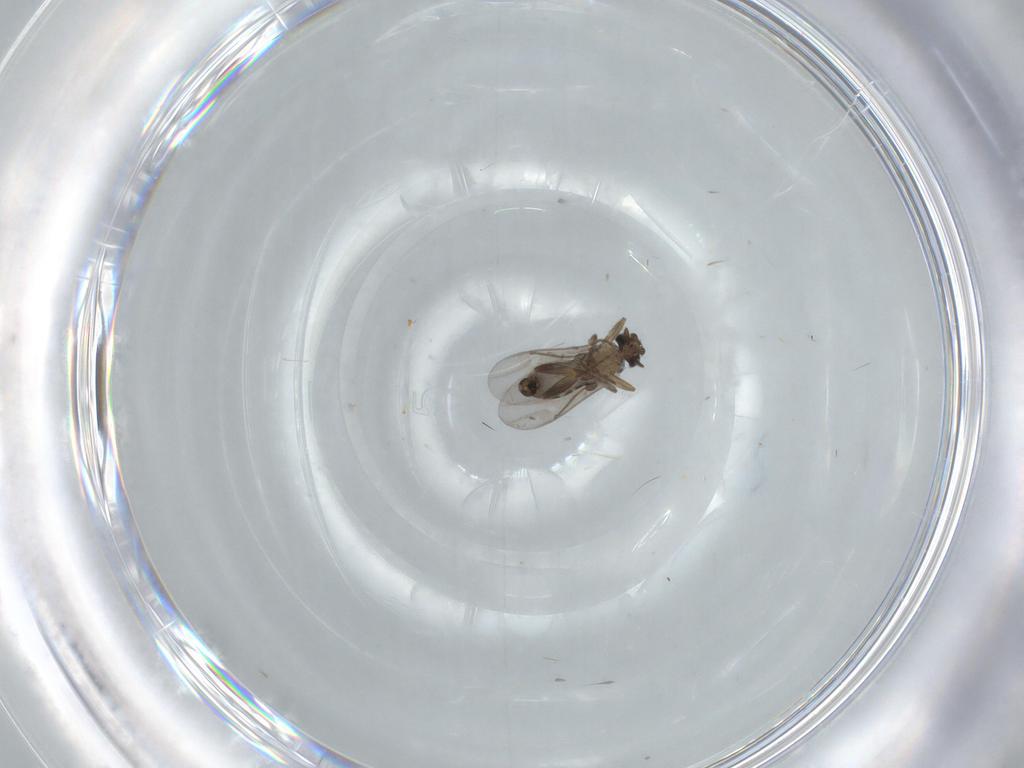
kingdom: Animalia
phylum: Arthropoda
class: Insecta
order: Diptera
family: Ceratopogonidae
